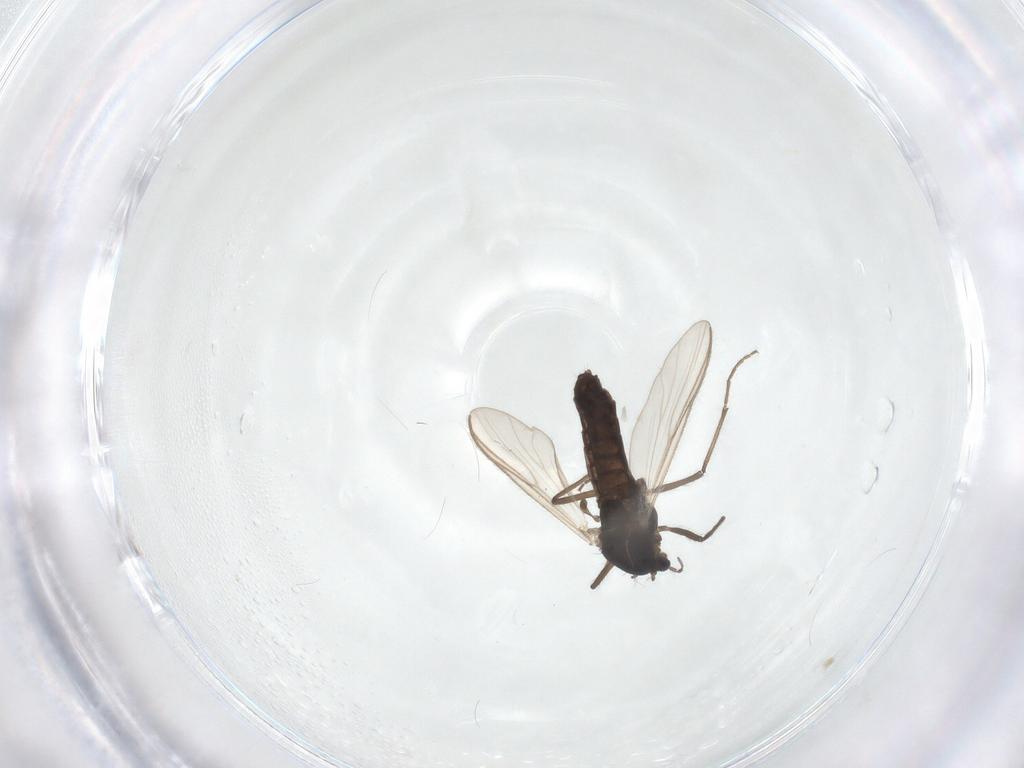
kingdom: Animalia
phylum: Arthropoda
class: Insecta
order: Diptera
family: Chironomidae
